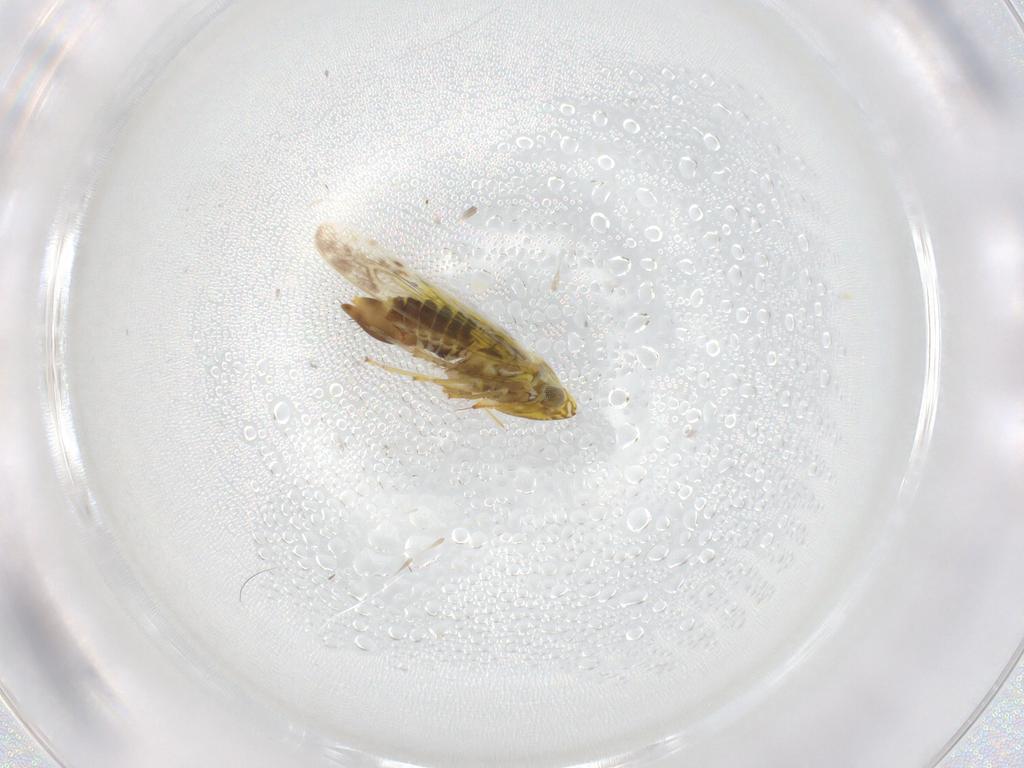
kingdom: Animalia
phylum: Arthropoda
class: Insecta
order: Hemiptera
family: Cicadellidae
